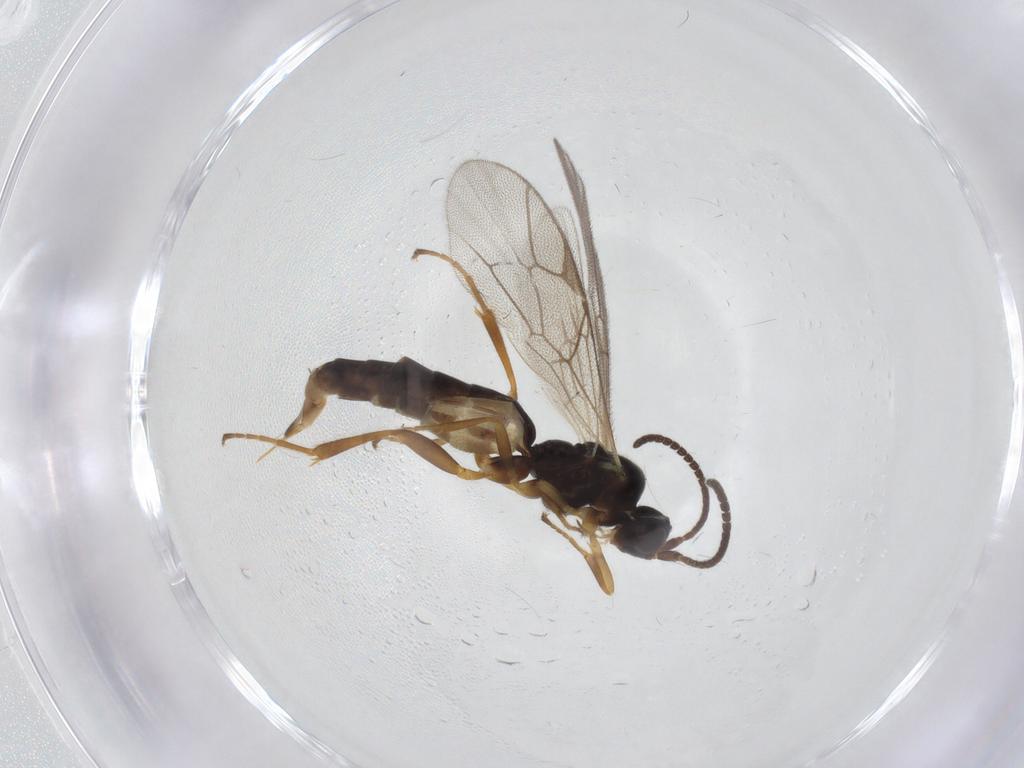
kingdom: Animalia
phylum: Arthropoda
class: Insecta
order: Hymenoptera
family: Ichneumonidae
